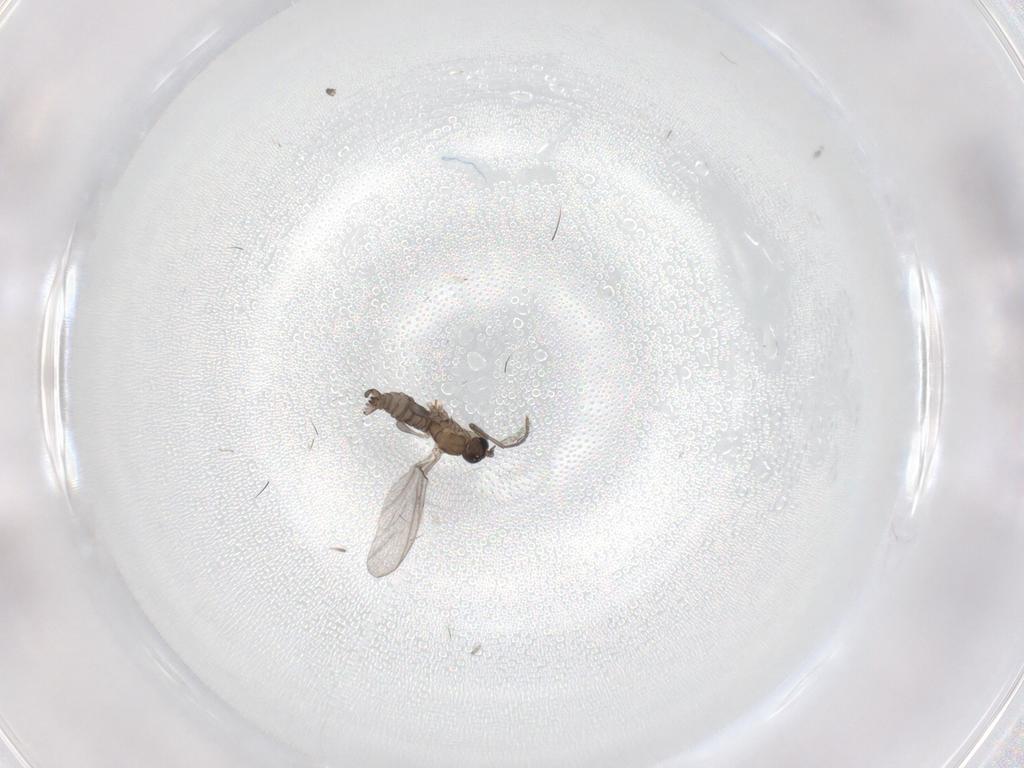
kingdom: Animalia
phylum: Arthropoda
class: Insecta
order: Diptera
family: Sciaridae
